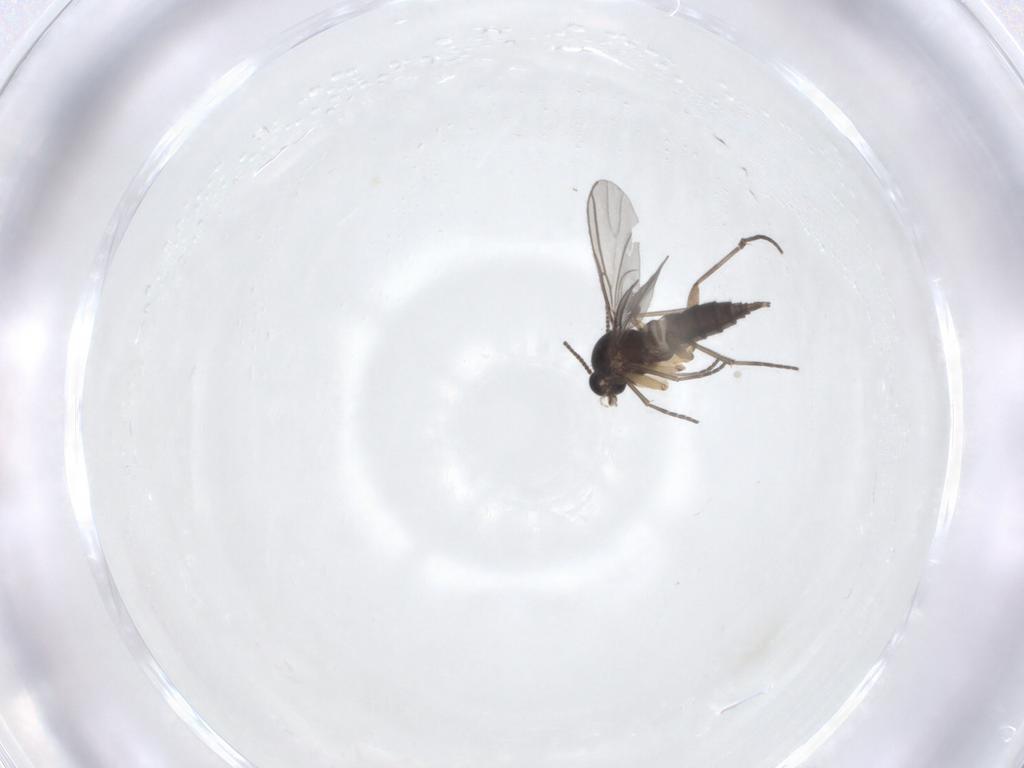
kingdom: Animalia
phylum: Arthropoda
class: Insecta
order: Diptera
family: Sciaridae
